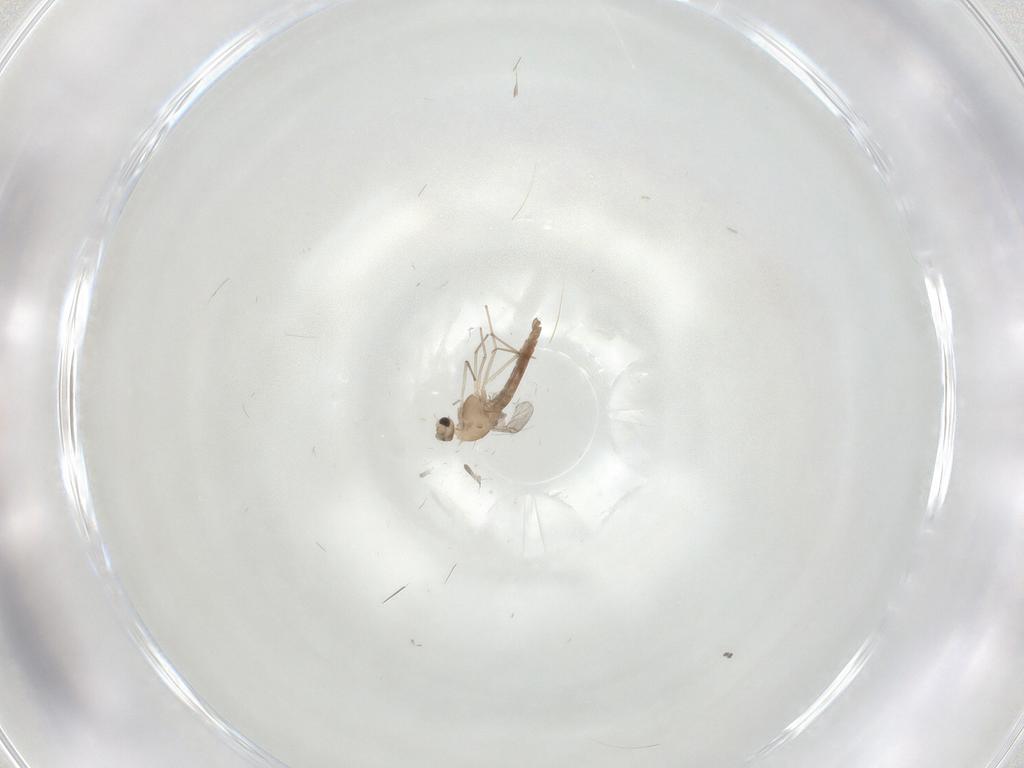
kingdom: Animalia
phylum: Arthropoda
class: Insecta
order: Diptera
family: Chironomidae
